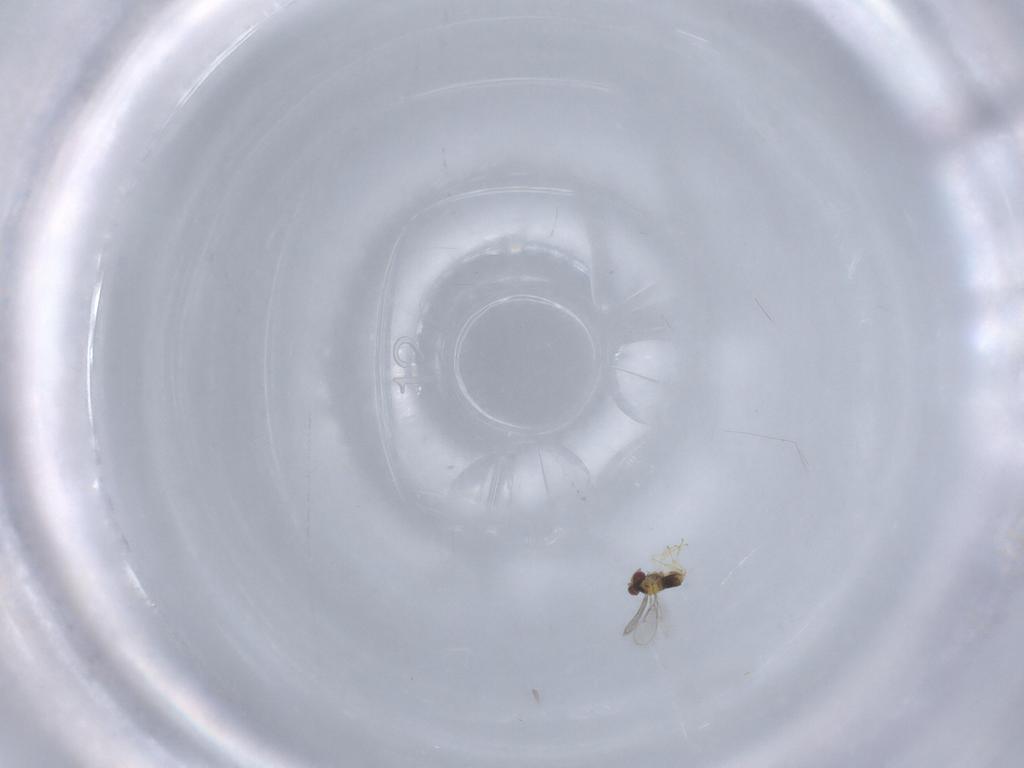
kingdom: Animalia
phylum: Arthropoda
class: Insecta
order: Hymenoptera
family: Aphelinidae
